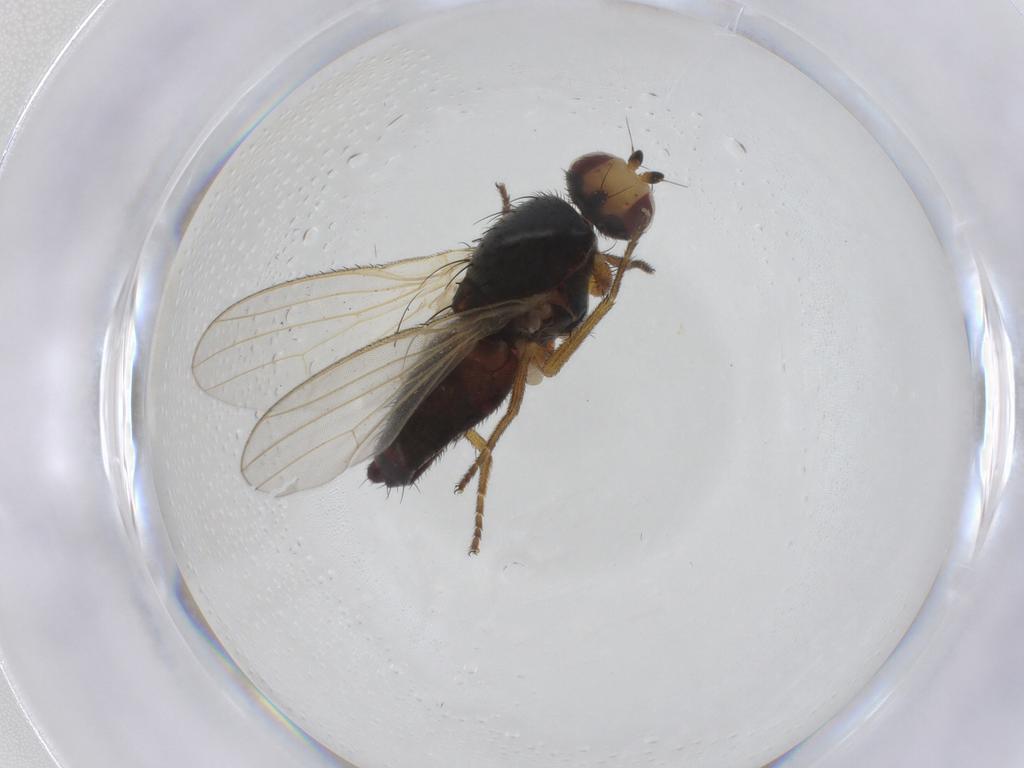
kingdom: Animalia
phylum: Arthropoda
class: Insecta
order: Diptera
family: Heleomyzidae
